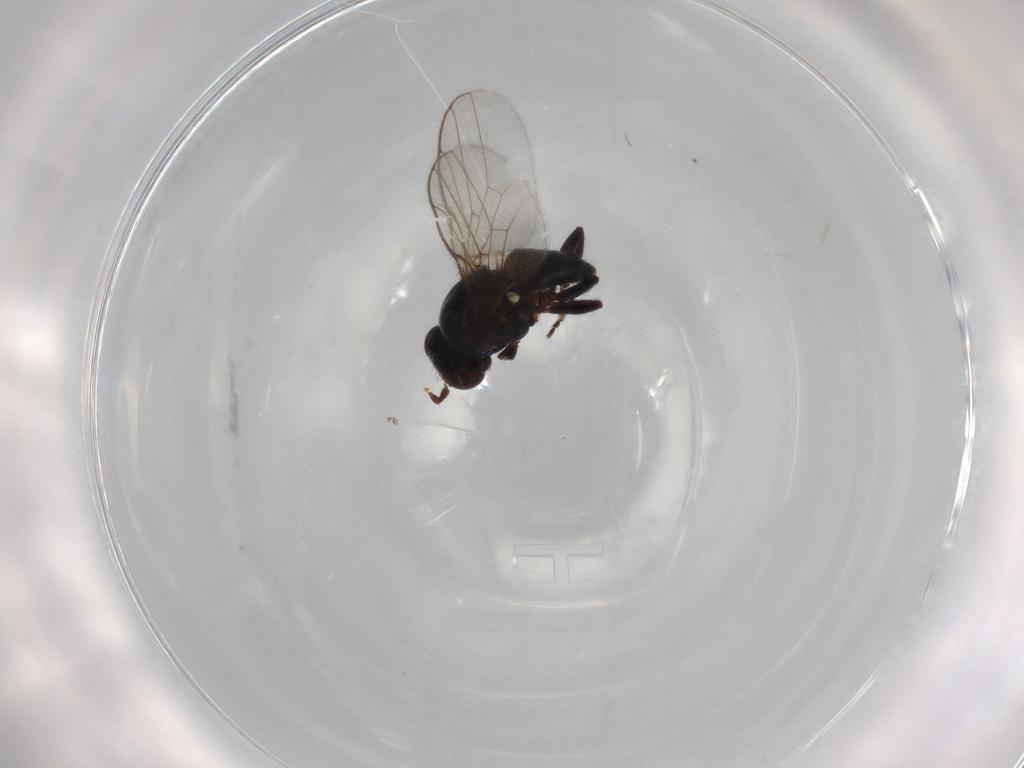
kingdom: Animalia
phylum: Arthropoda
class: Insecta
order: Diptera
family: Chloropidae
